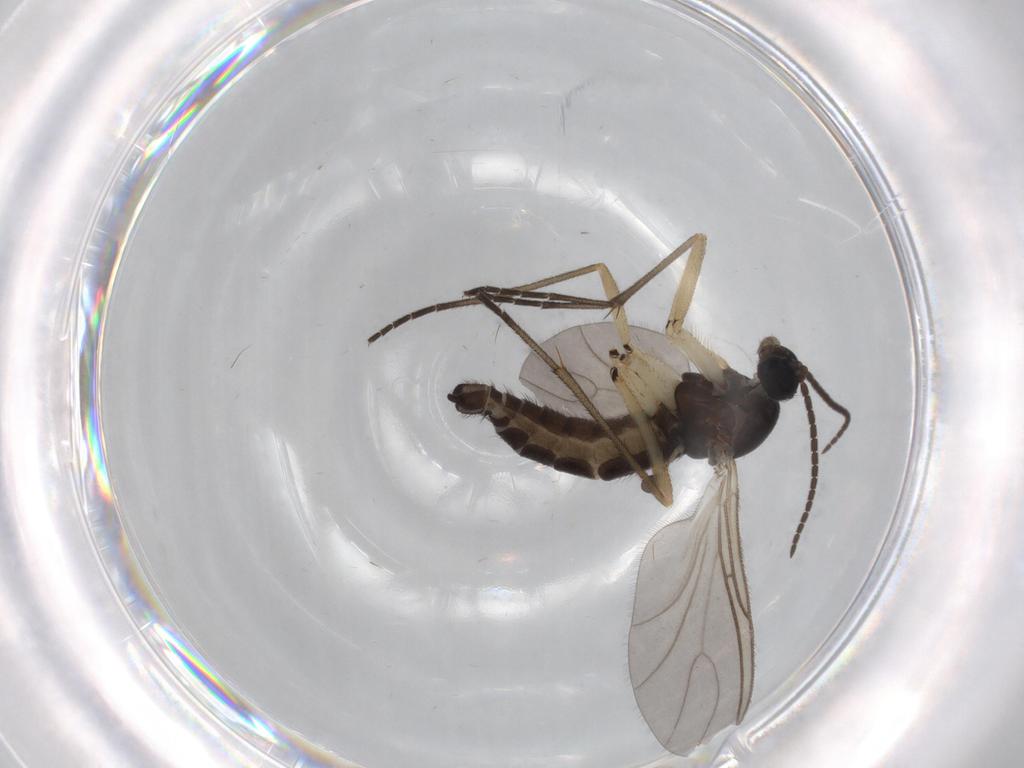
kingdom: Animalia
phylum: Arthropoda
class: Insecta
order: Diptera
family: Sciaridae
